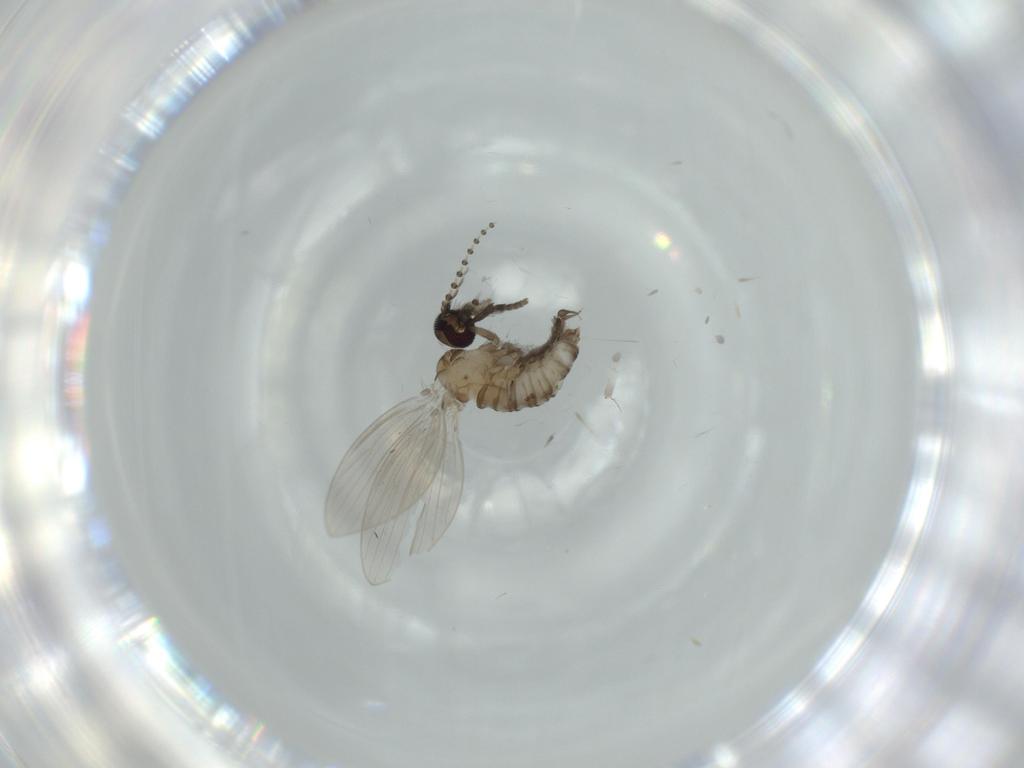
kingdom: Animalia
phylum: Arthropoda
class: Insecta
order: Diptera
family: Psychodidae
